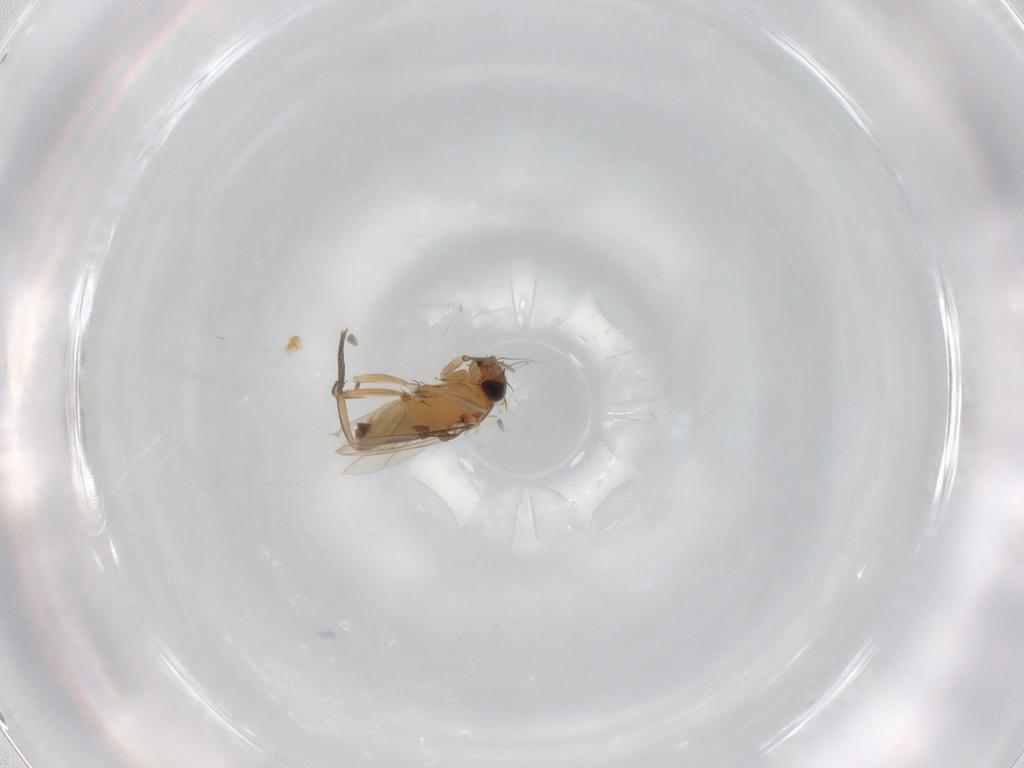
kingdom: Animalia
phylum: Arthropoda
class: Insecta
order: Diptera
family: Phoridae
